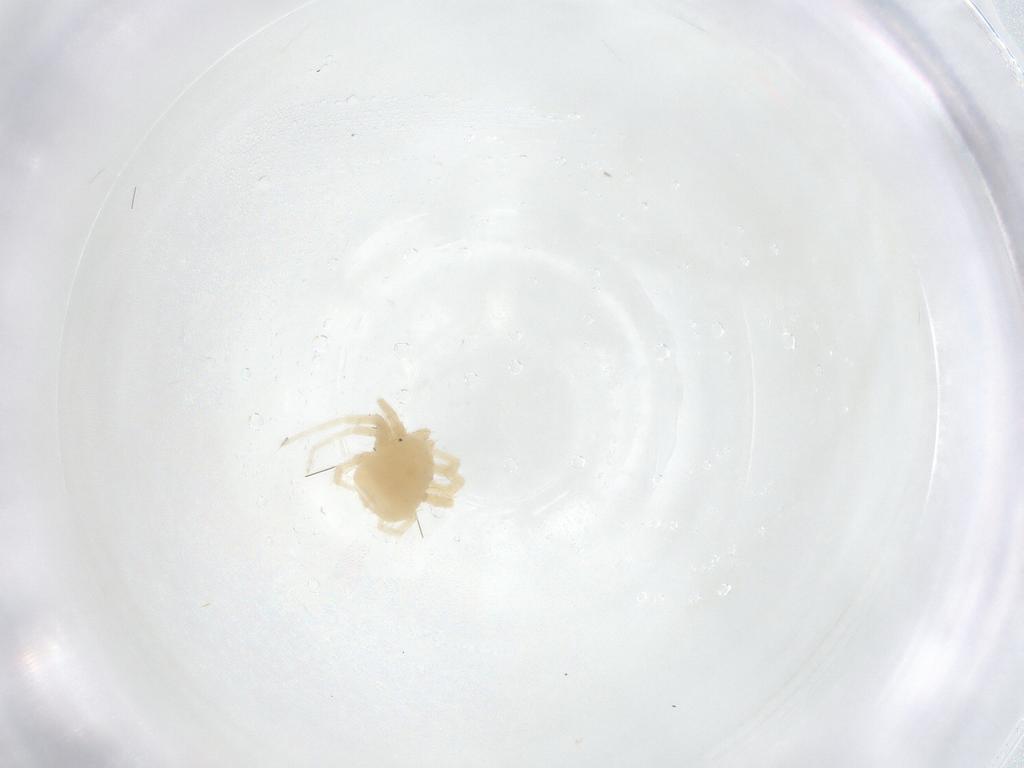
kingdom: Animalia
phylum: Arthropoda
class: Arachnida
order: Trombidiformes
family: Anystidae
